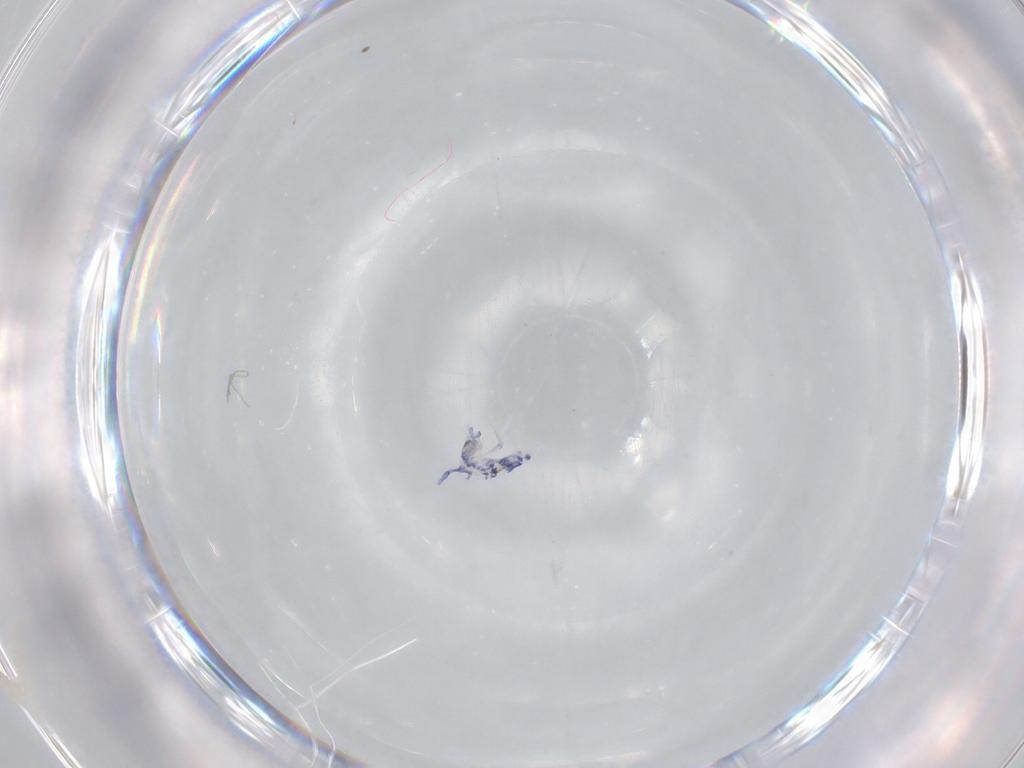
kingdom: Animalia
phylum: Arthropoda
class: Collembola
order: Entomobryomorpha
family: Entomobryidae
